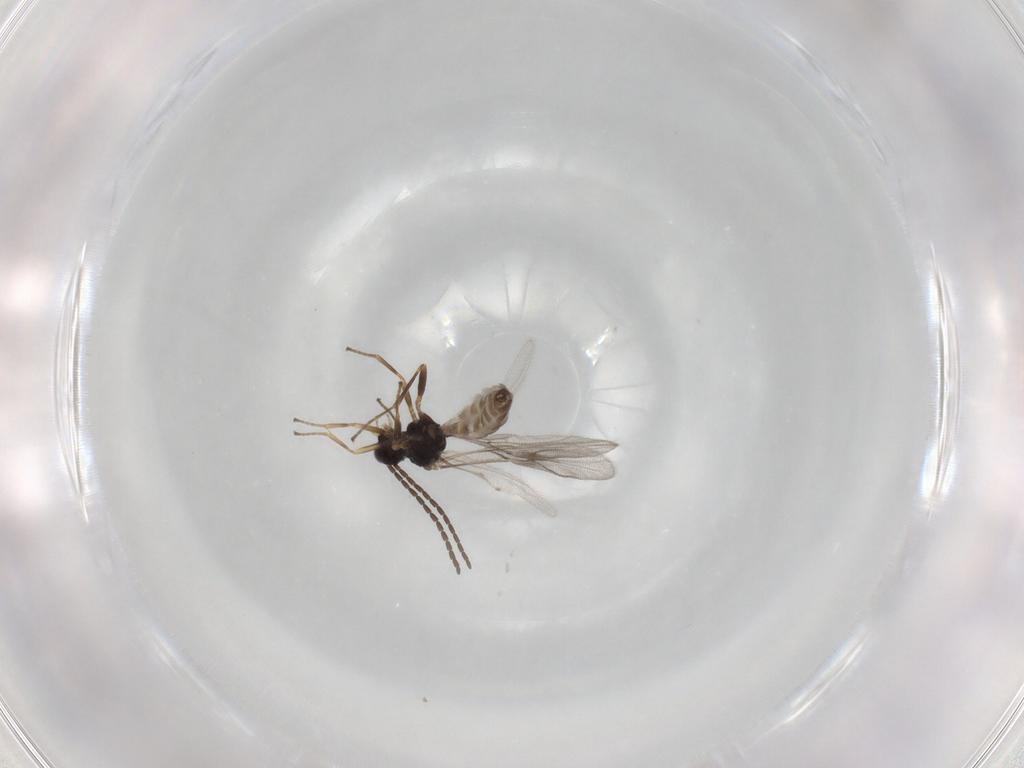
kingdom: Animalia
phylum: Arthropoda
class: Insecta
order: Hymenoptera
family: Braconidae
